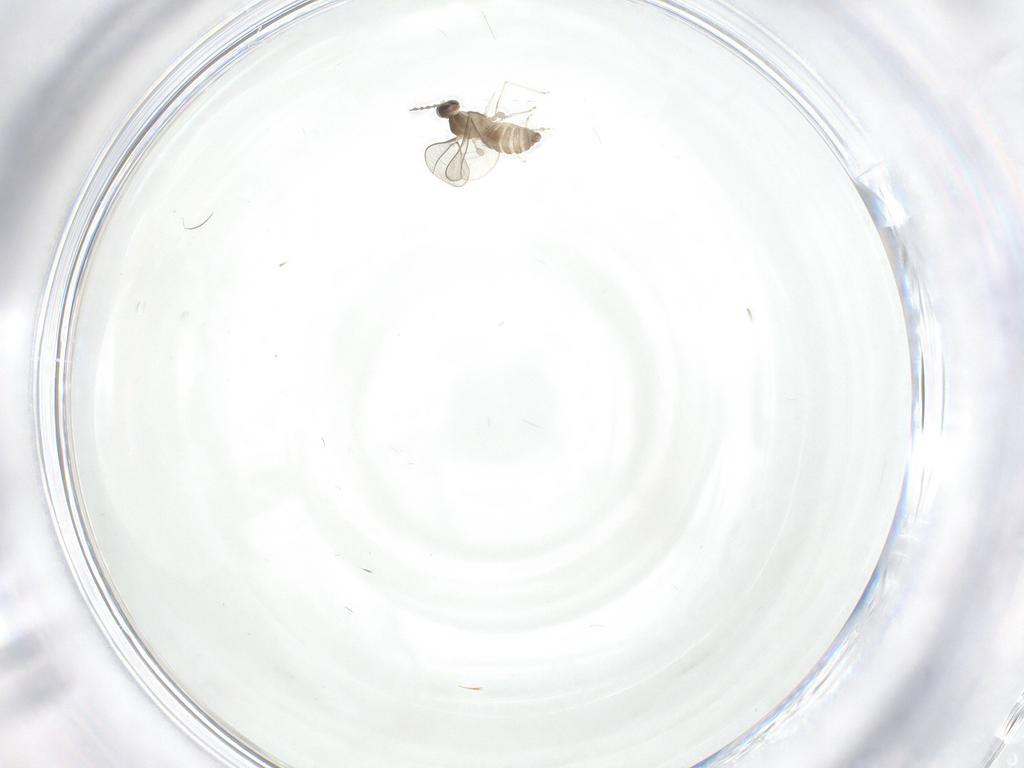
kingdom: Animalia
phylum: Arthropoda
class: Insecta
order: Diptera
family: Cecidomyiidae
